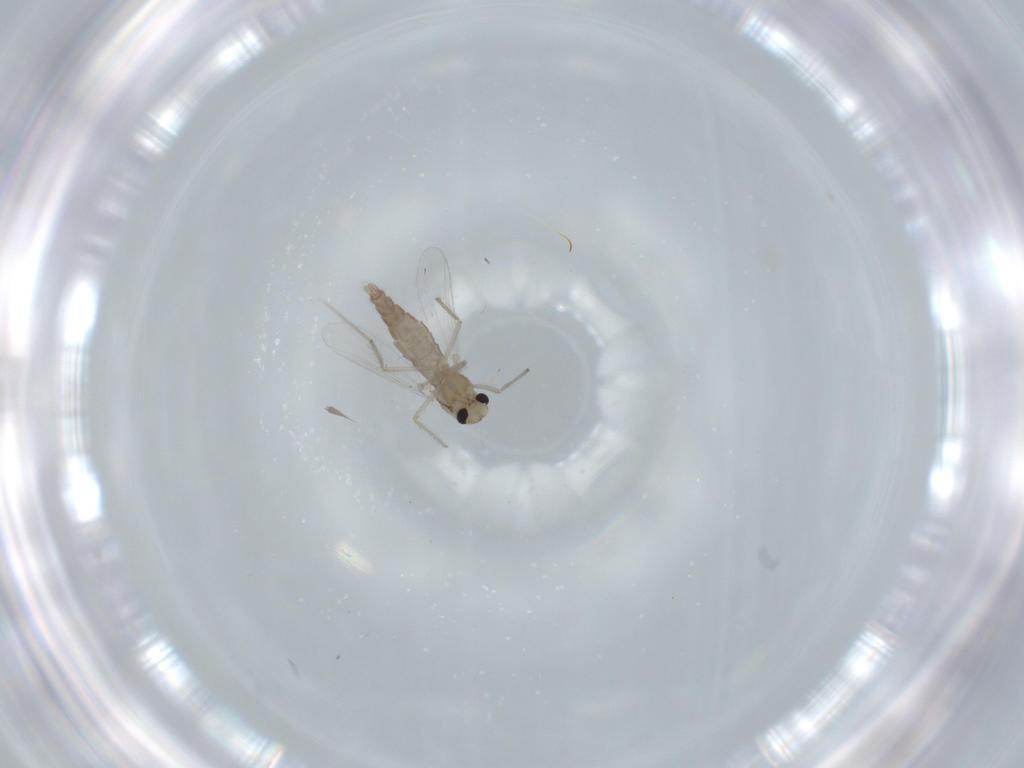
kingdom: Animalia
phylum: Arthropoda
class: Insecta
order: Diptera
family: Chironomidae
